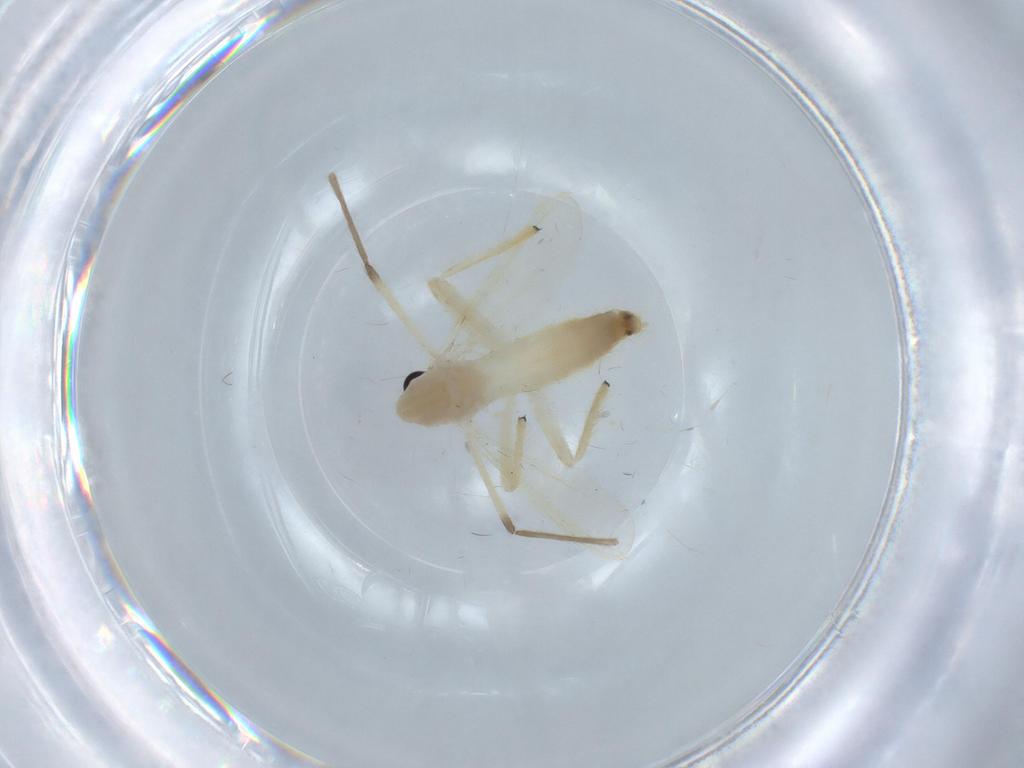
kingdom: Animalia
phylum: Arthropoda
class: Insecta
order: Diptera
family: Chironomidae
